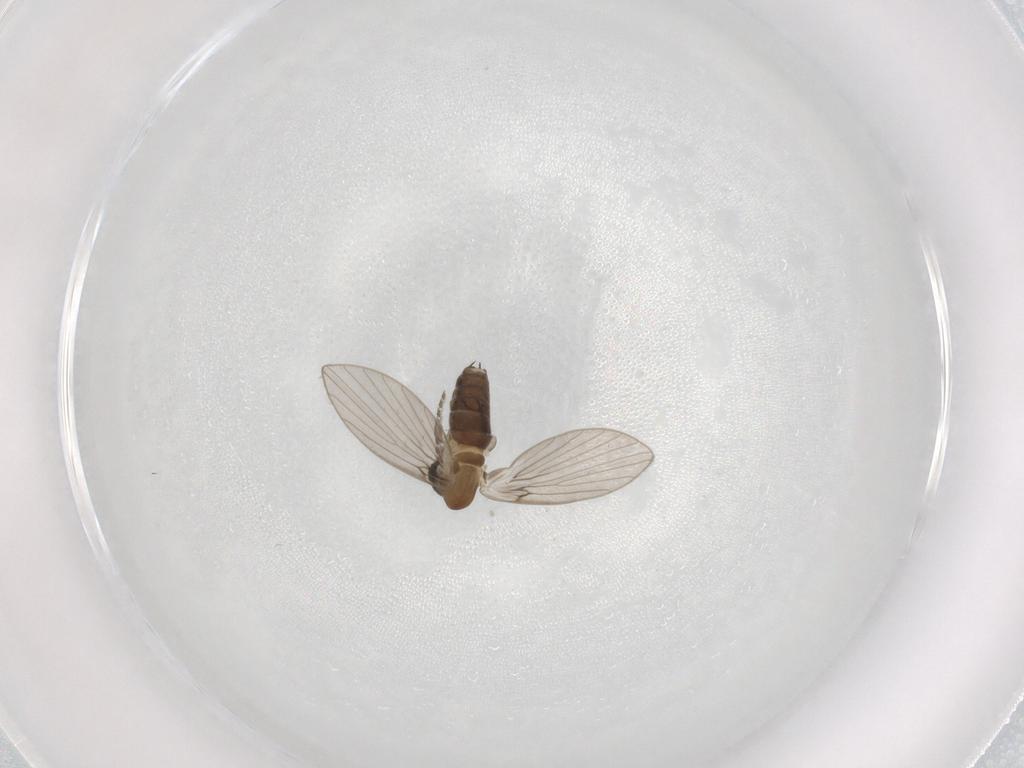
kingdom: Animalia
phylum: Arthropoda
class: Insecta
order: Diptera
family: Psychodidae
